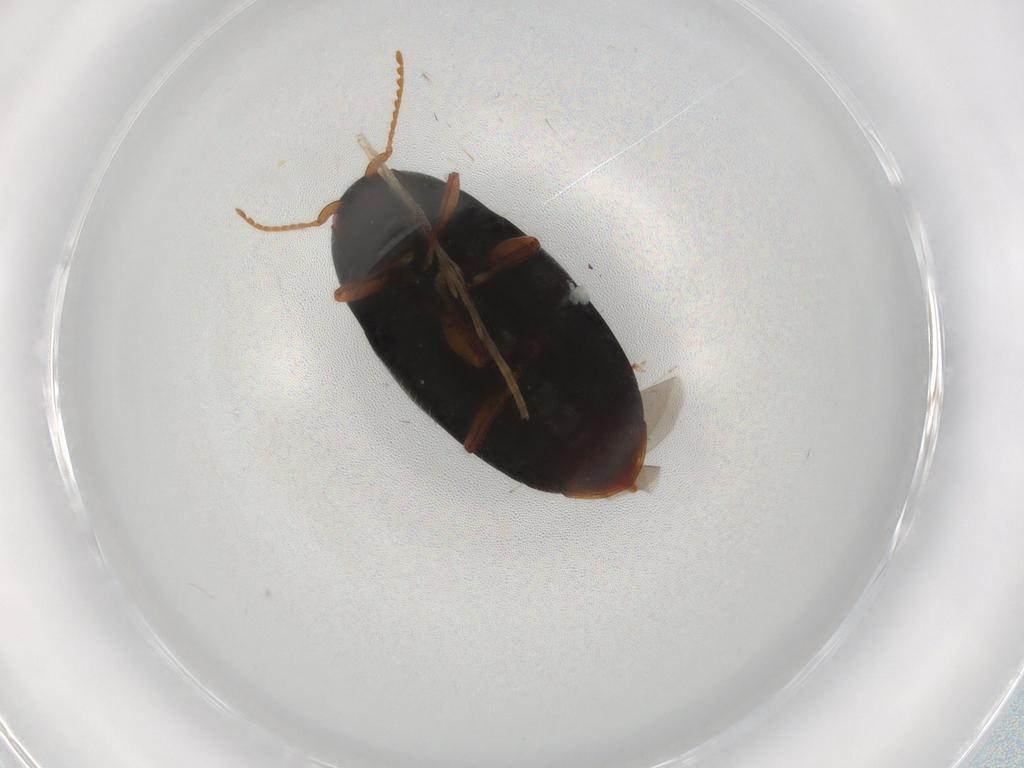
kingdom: Animalia
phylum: Arthropoda
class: Insecta
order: Coleoptera
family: Elateridae
